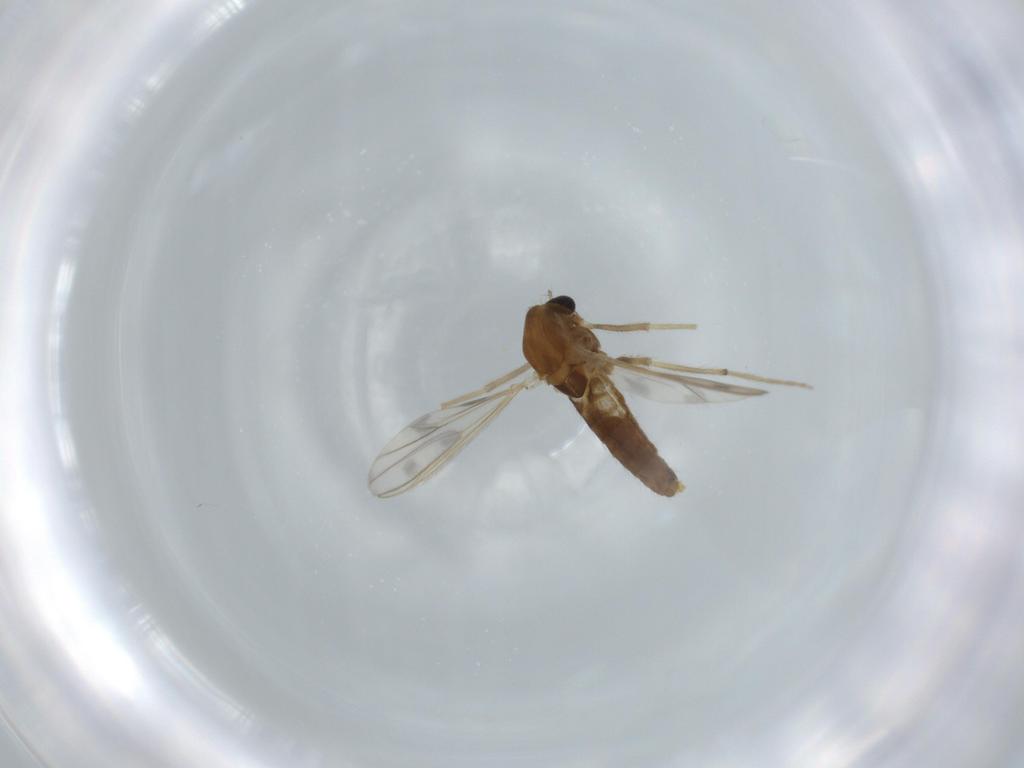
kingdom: Animalia
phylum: Arthropoda
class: Insecta
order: Diptera
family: Chironomidae
